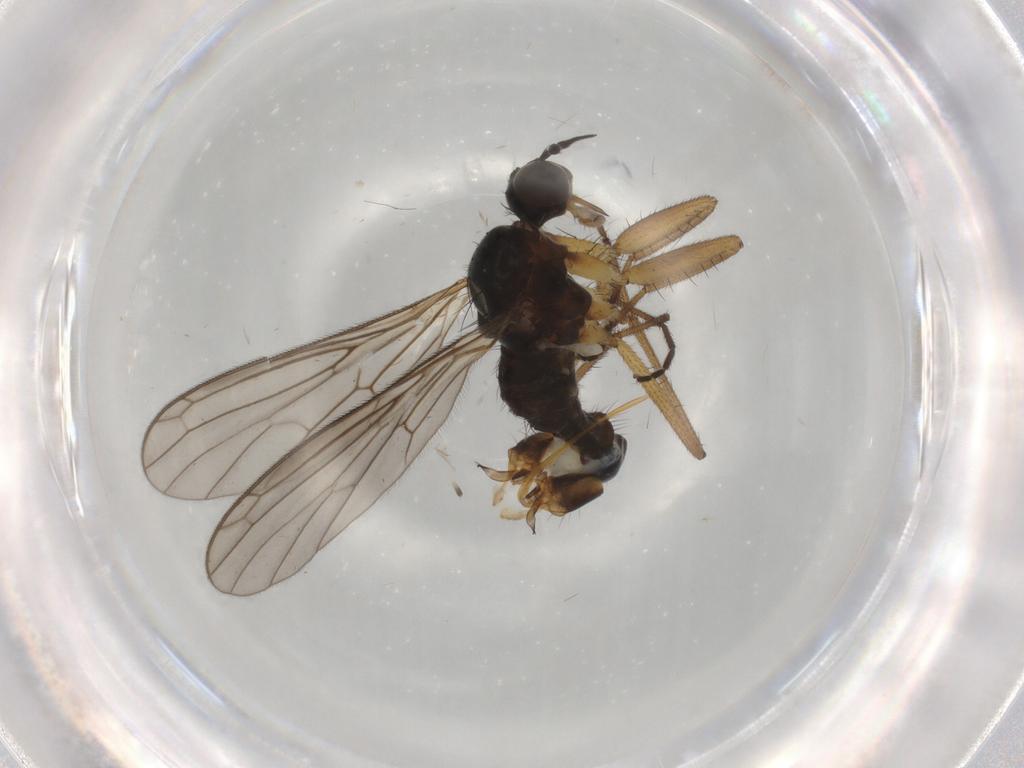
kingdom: Animalia
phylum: Arthropoda
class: Insecta
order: Diptera
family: Empididae
